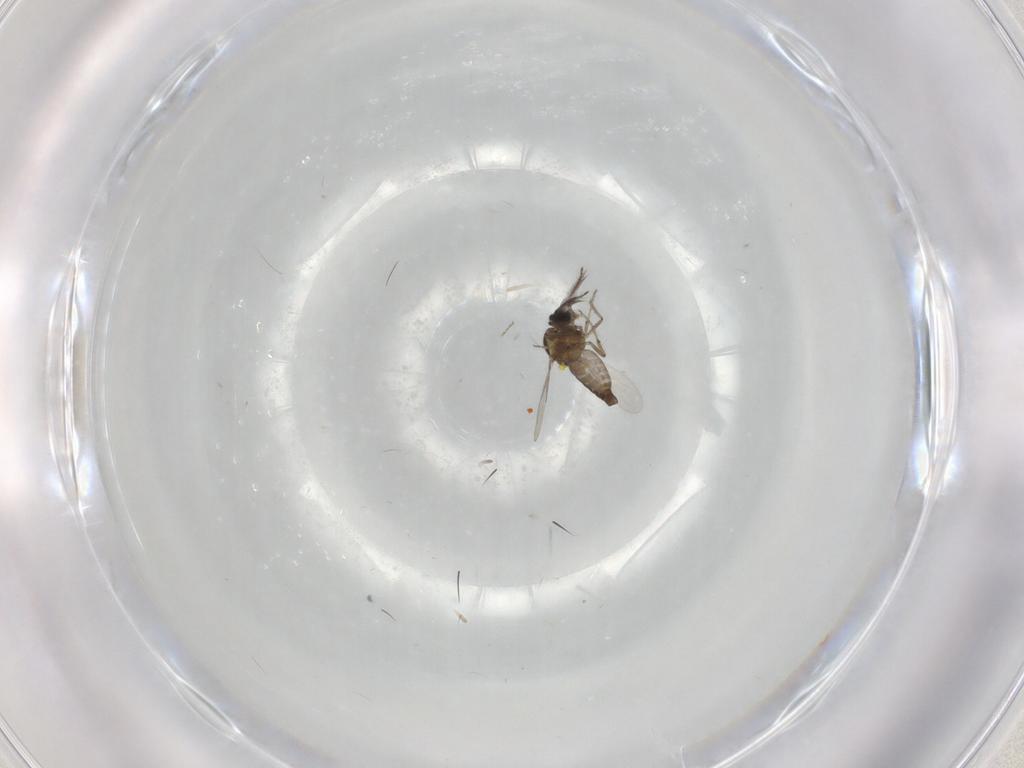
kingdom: Animalia
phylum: Arthropoda
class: Insecta
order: Diptera
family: Ceratopogonidae
